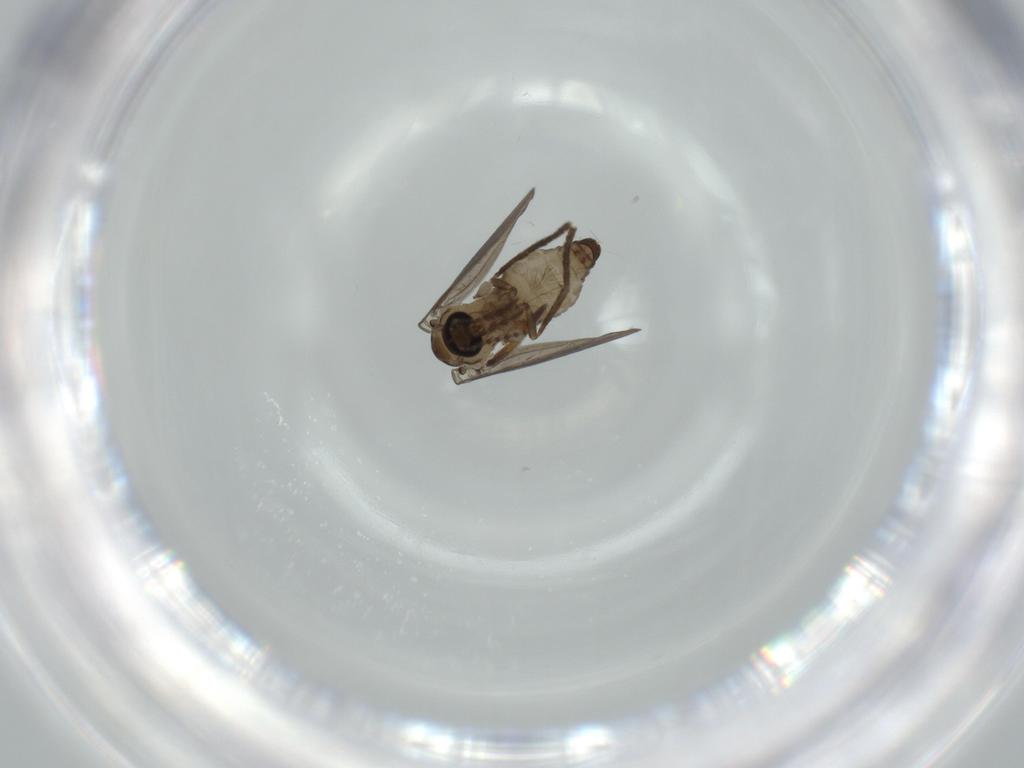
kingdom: Animalia
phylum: Arthropoda
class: Insecta
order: Diptera
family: Psychodidae
